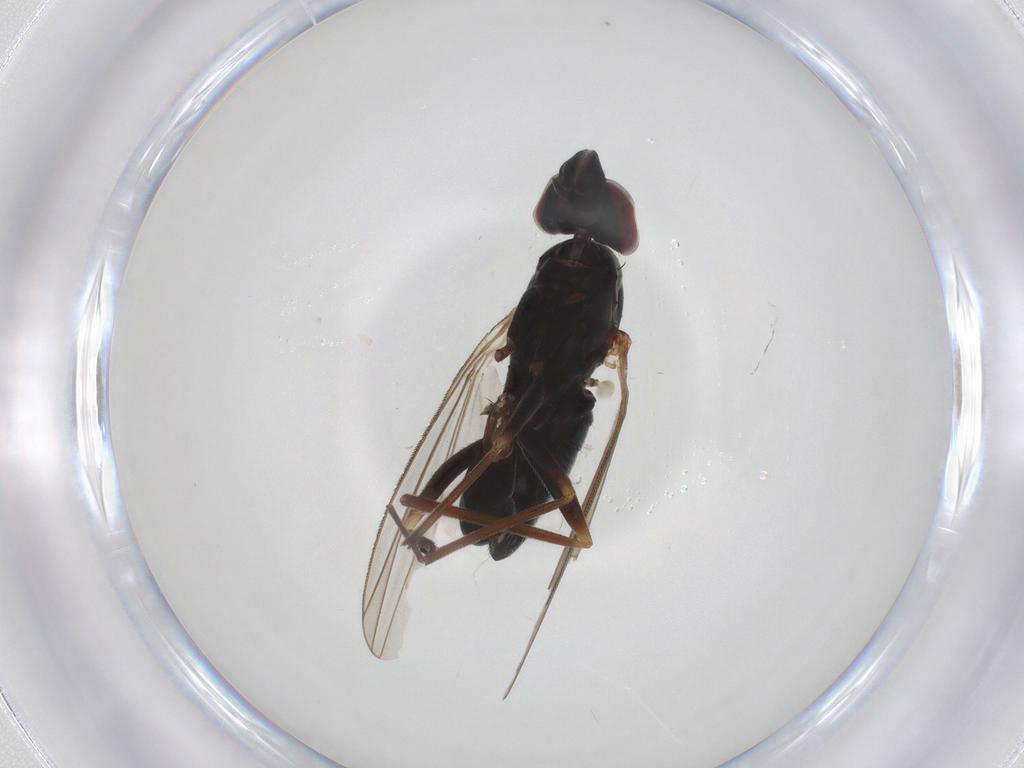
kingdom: Animalia
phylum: Arthropoda
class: Insecta
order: Diptera
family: Dolichopodidae
